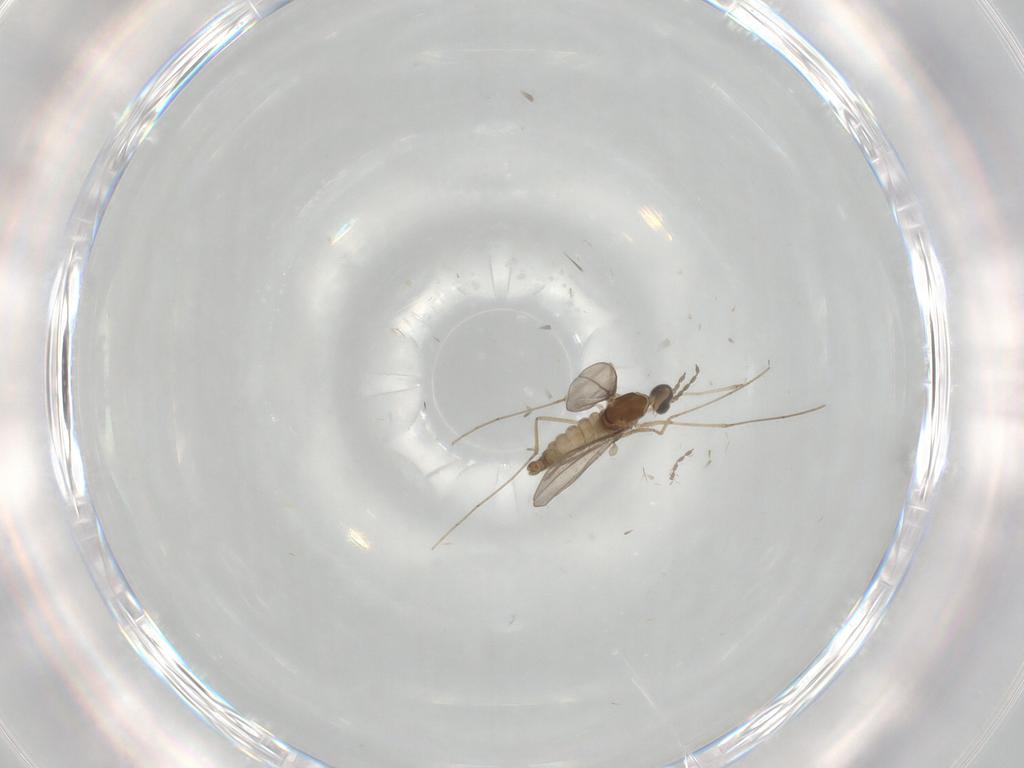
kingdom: Animalia
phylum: Arthropoda
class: Insecta
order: Diptera
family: Cecidomyiidae
